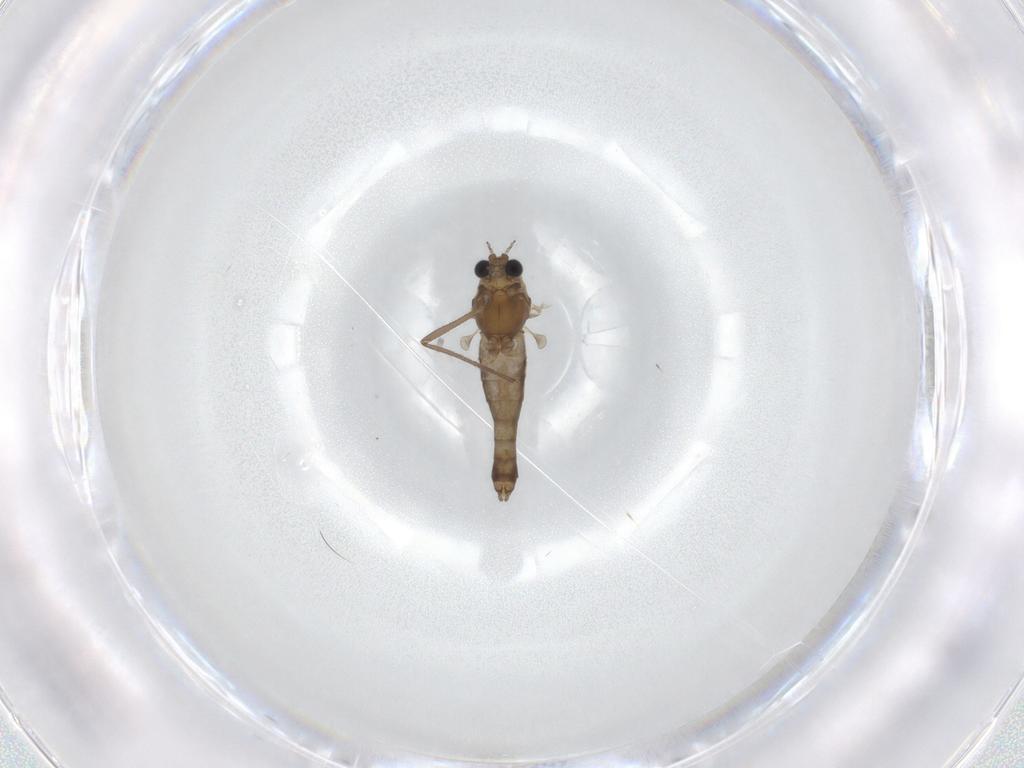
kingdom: Animalia
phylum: Arthropoda
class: Insecta
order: Diptera
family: Chironomidae
